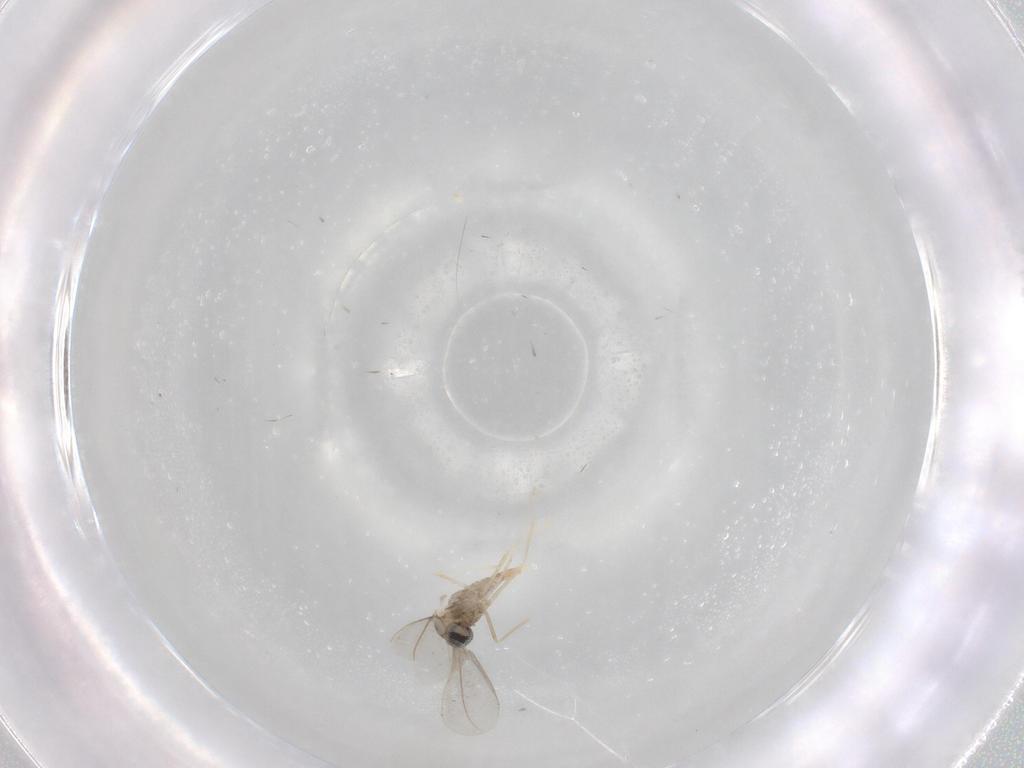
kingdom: Animalia
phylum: Arthropoda
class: Insecta
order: Diptera
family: Cecidomyiidae
